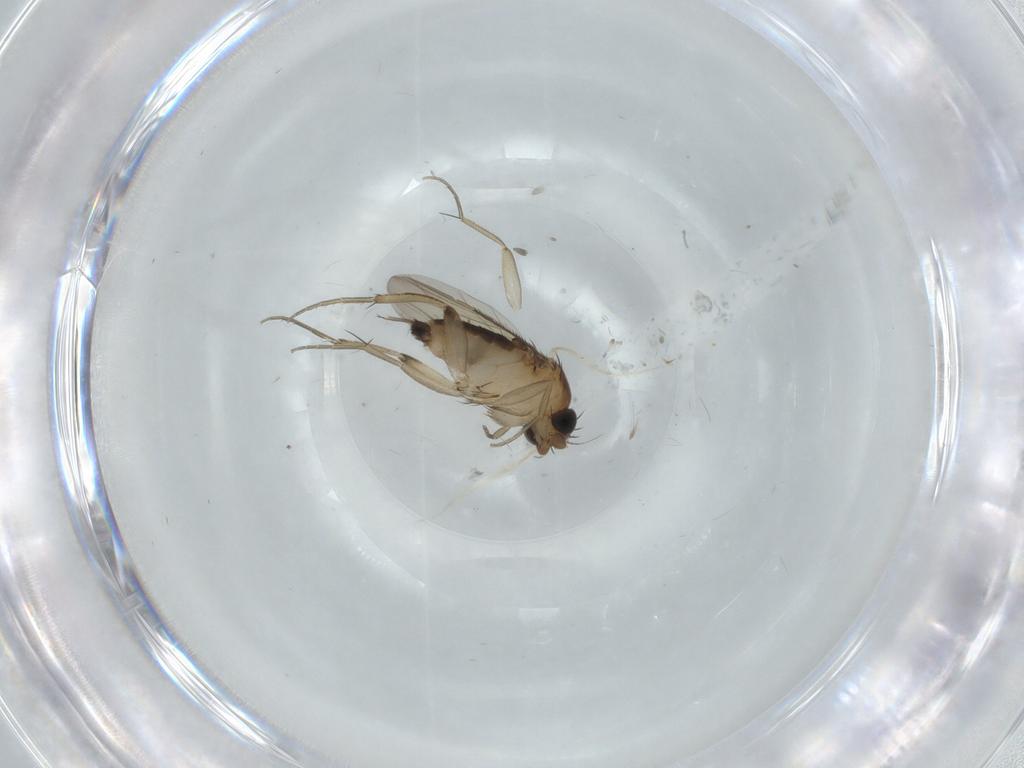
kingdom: Animalia
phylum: Arthropoda
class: Insecta
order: Diptera
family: Phoridae
